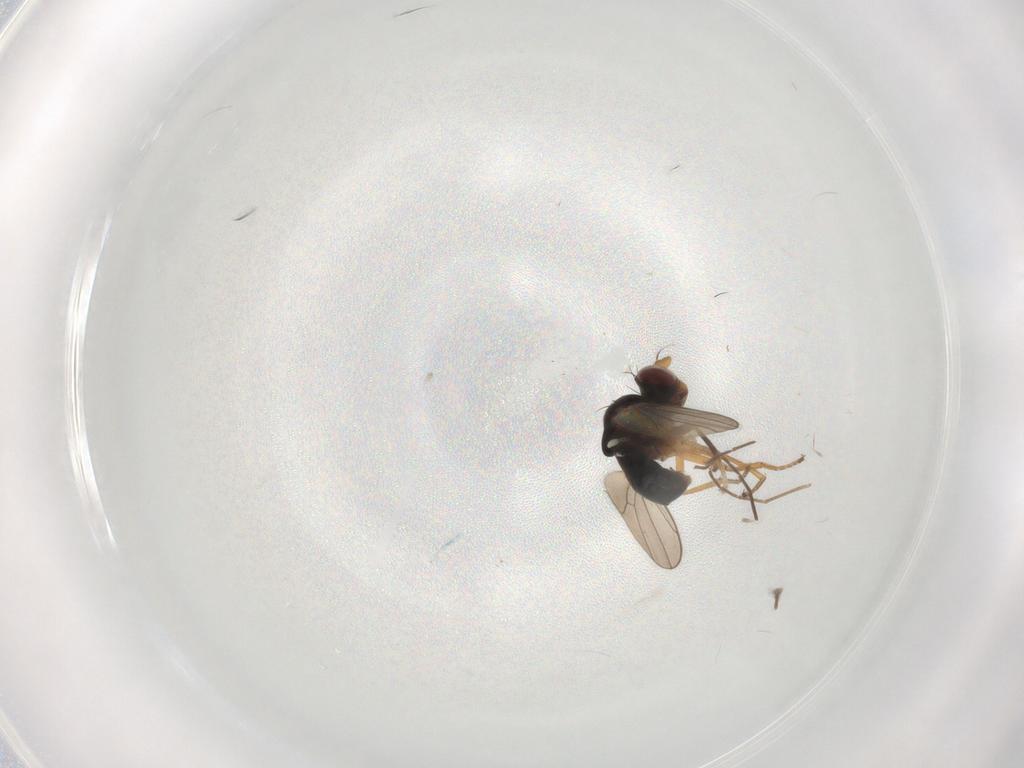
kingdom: Animalia
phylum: Arthropoda
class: Insecta
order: Diptera
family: Ephydridae
